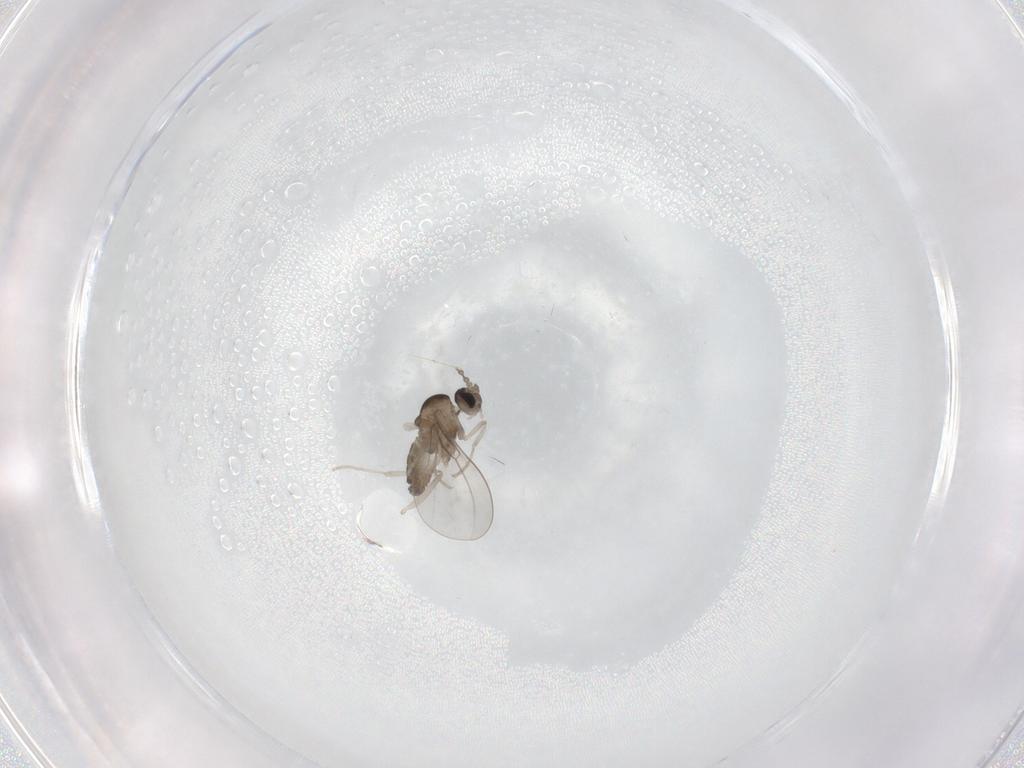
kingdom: Animalia
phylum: Arthropoda
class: Insecta
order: Diptera
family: Cecidomyiidae
